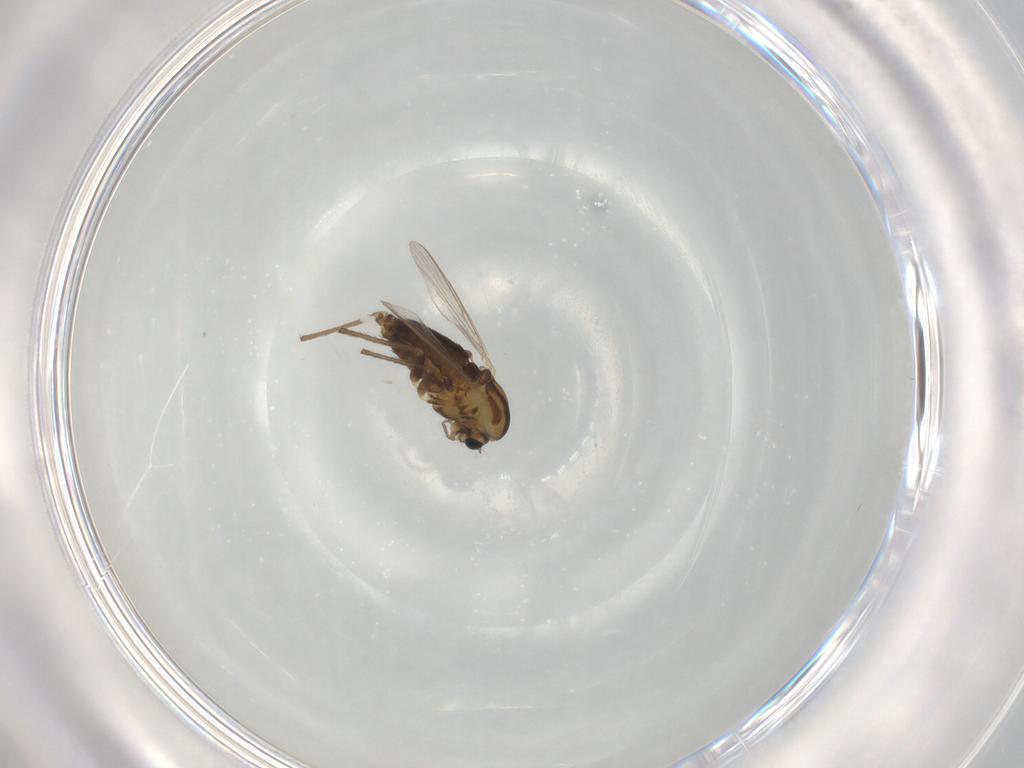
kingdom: Animalia
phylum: Arthropoda
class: Insecta
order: Diptera
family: Chironomidae
